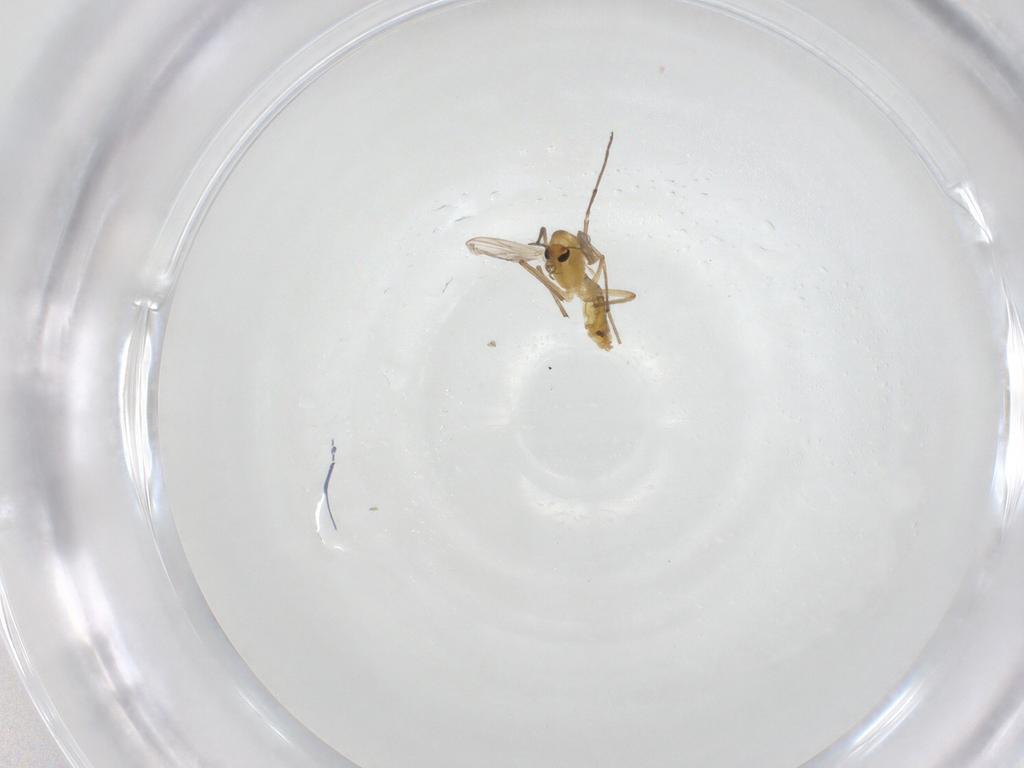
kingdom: Animalia
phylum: Arthropoda
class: Insecta
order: Diptera
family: Chironomidae
